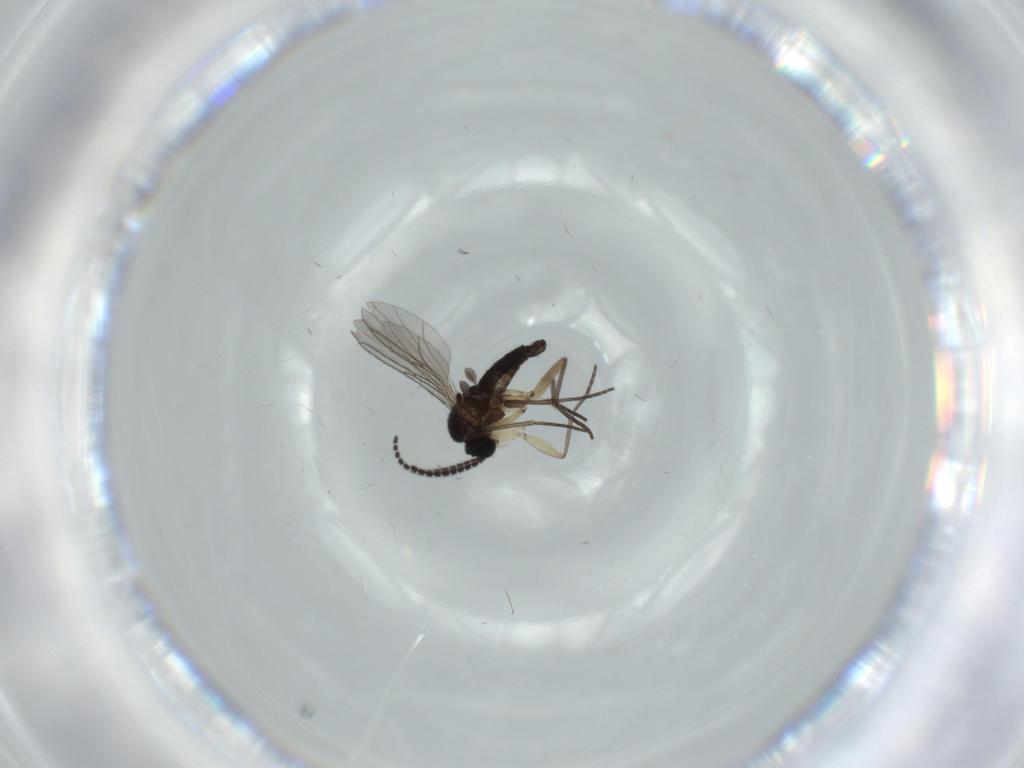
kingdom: Animalia
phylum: Arthropoda
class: Insecta
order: Diptera
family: Sciaridae
